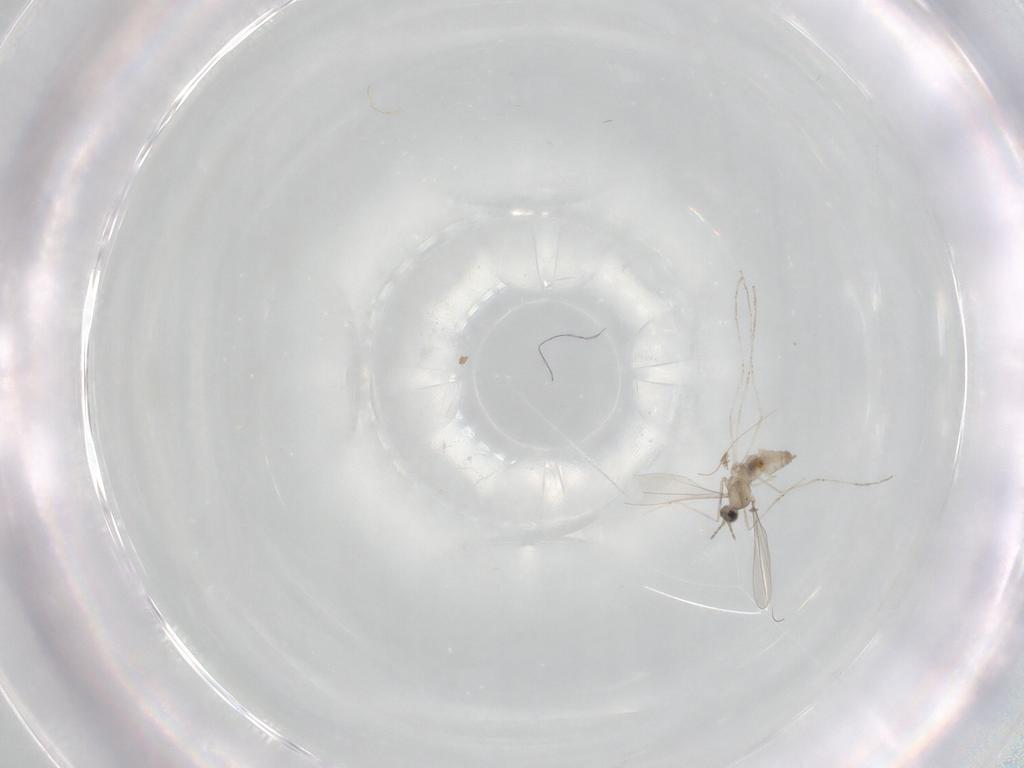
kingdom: Animalia
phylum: Arthropoda
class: Insecta
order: Diptera
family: Cecidomyiidae
